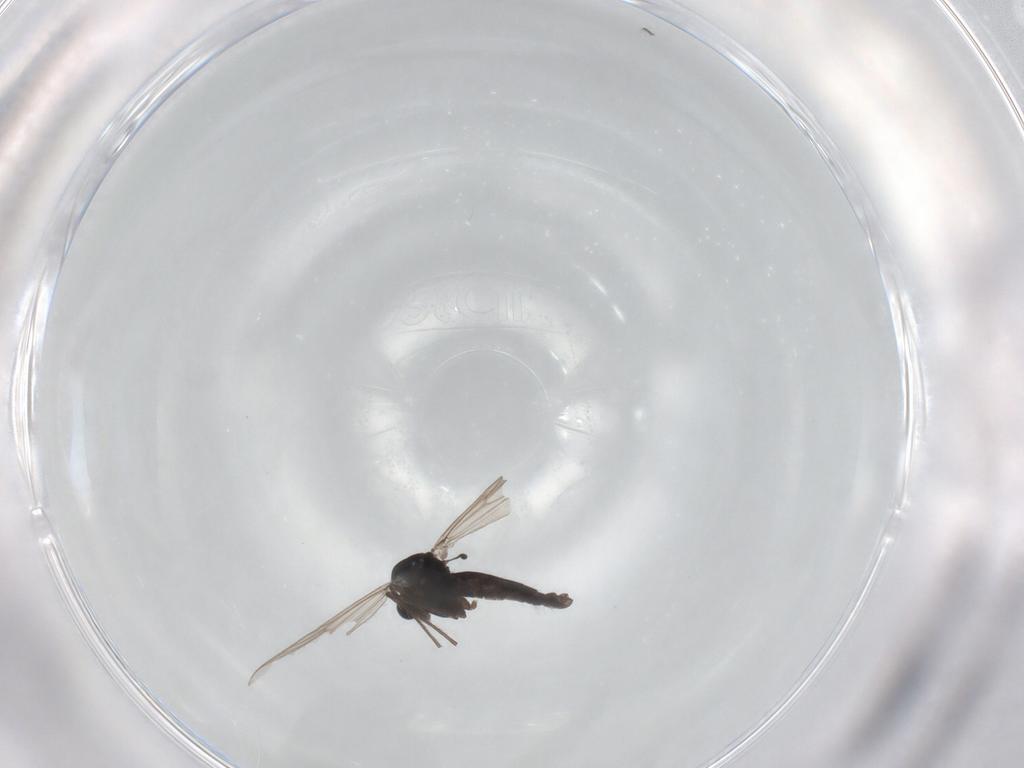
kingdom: Animalia
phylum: Arthropoda
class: Insecta
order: Diptera
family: Chironomidae
